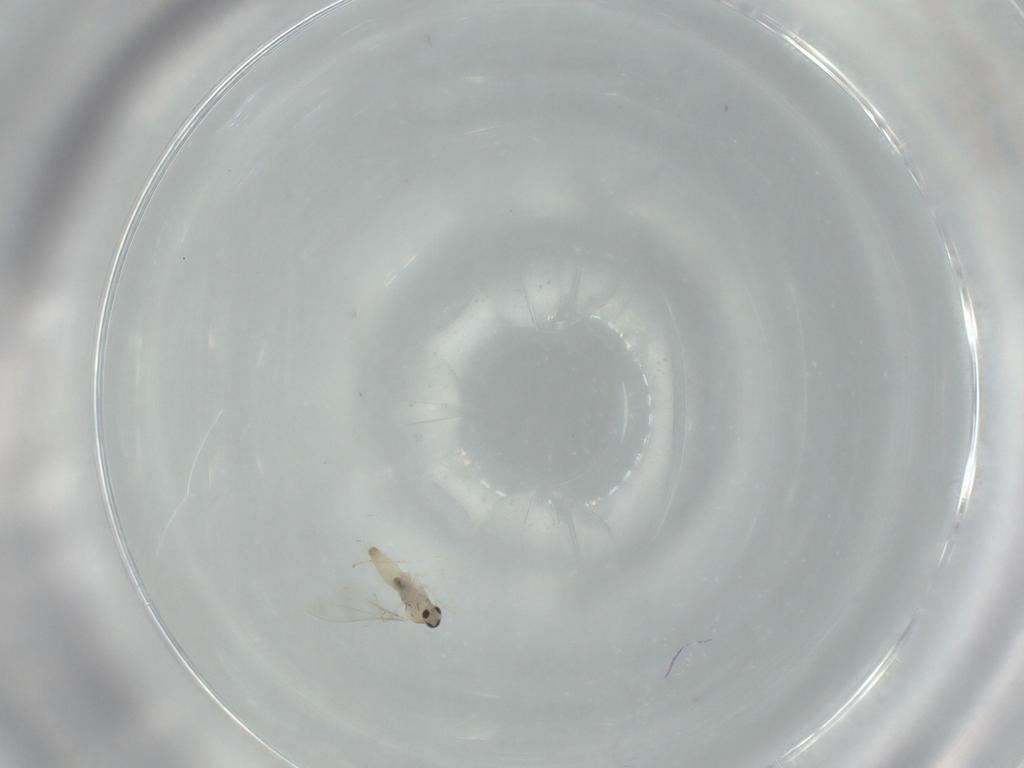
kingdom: Animalia
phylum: Arthropoda
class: Insecta
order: Diptera
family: Cecidomyiidae
